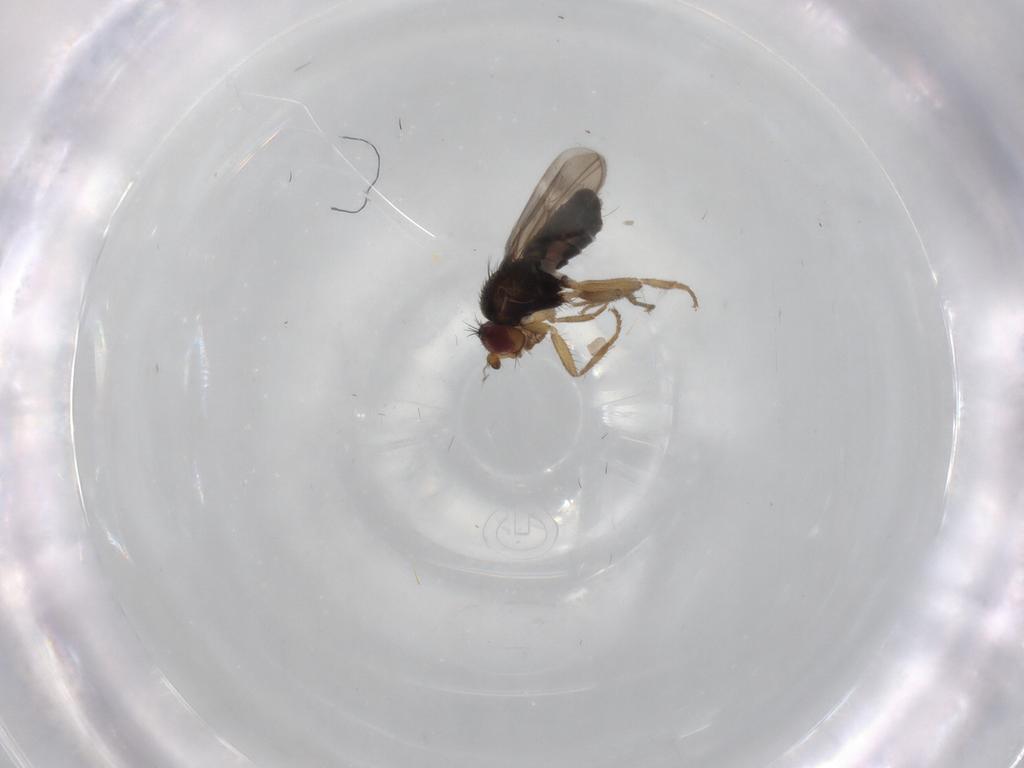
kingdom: Animalia
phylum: Arthropoda
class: Insecta
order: Diptera
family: Sphaeroceridae
